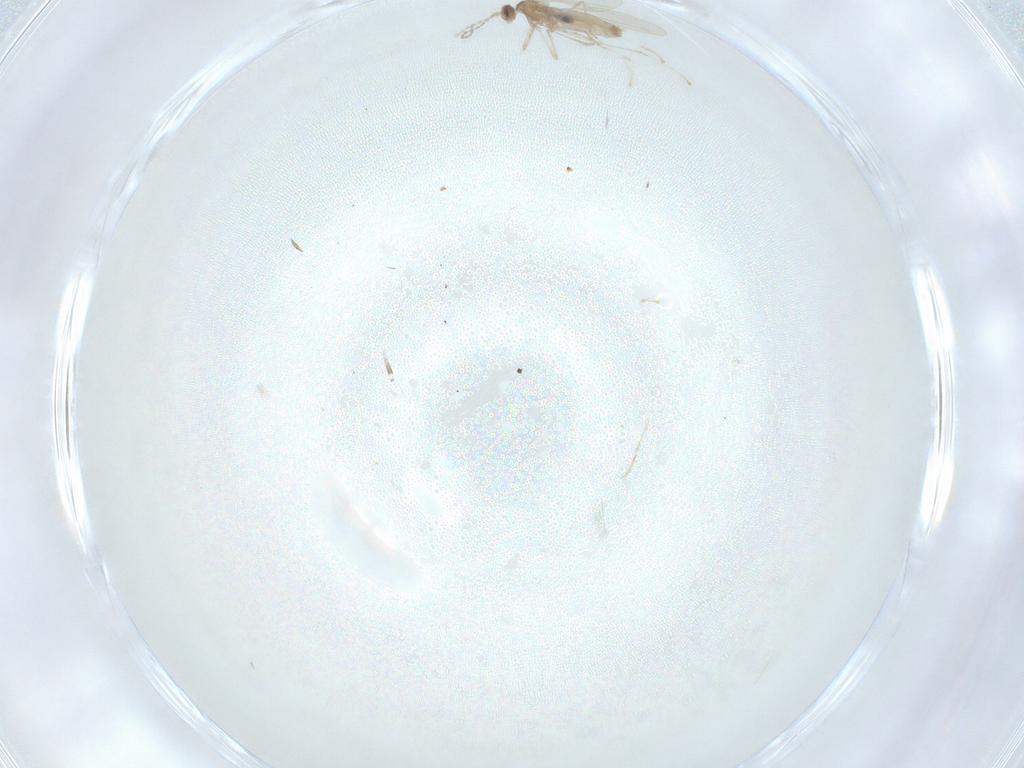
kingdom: Animalia
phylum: Arthropoda
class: Insecta
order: Diptera
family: Cecidomyiidae
